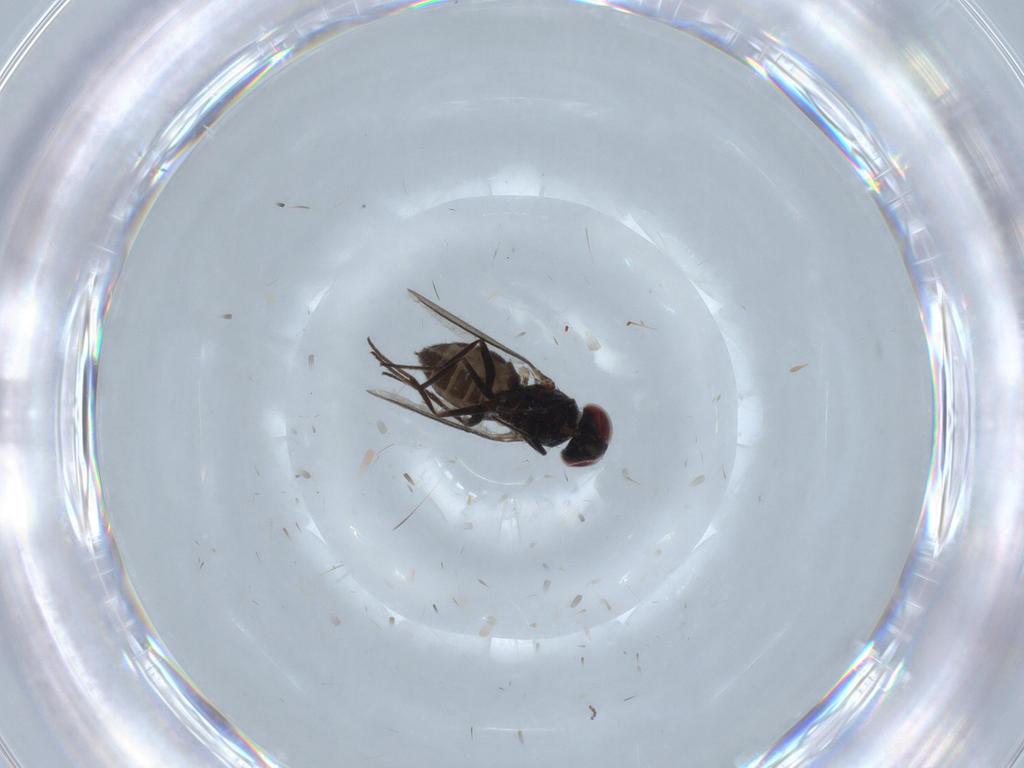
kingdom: Animalia
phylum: Arthropoda
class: Insecta
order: Diptera
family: Dolichopodidae
